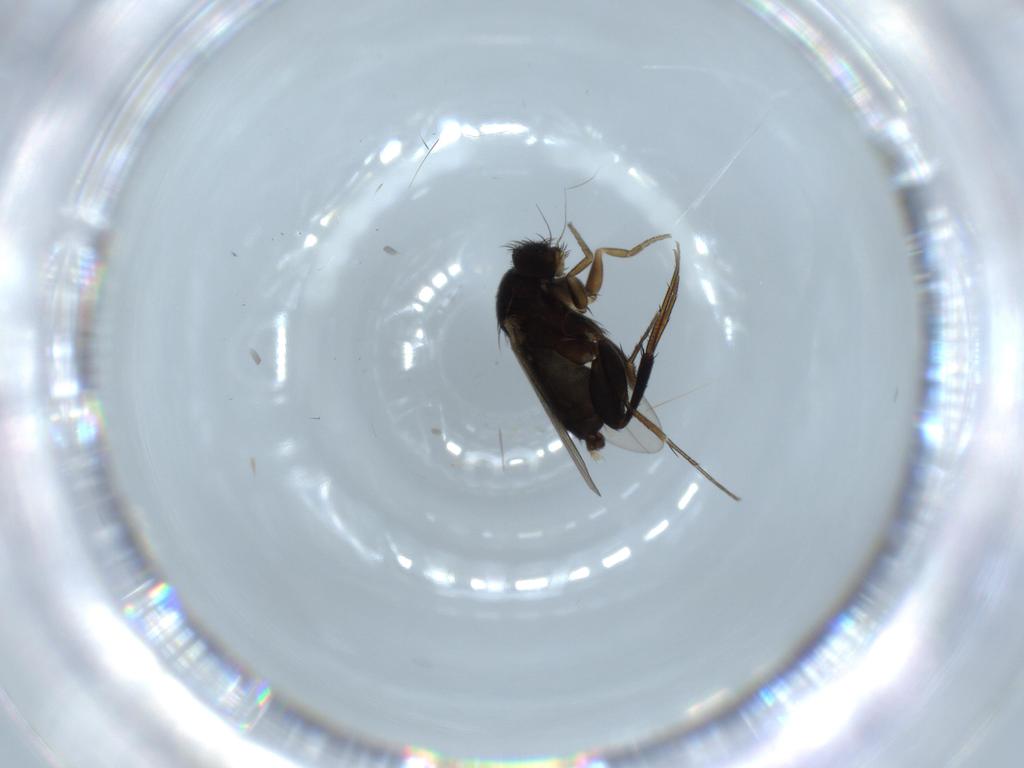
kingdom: Animalia
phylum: Arthropoda
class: Insecta
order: Diptera
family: Phoridae
